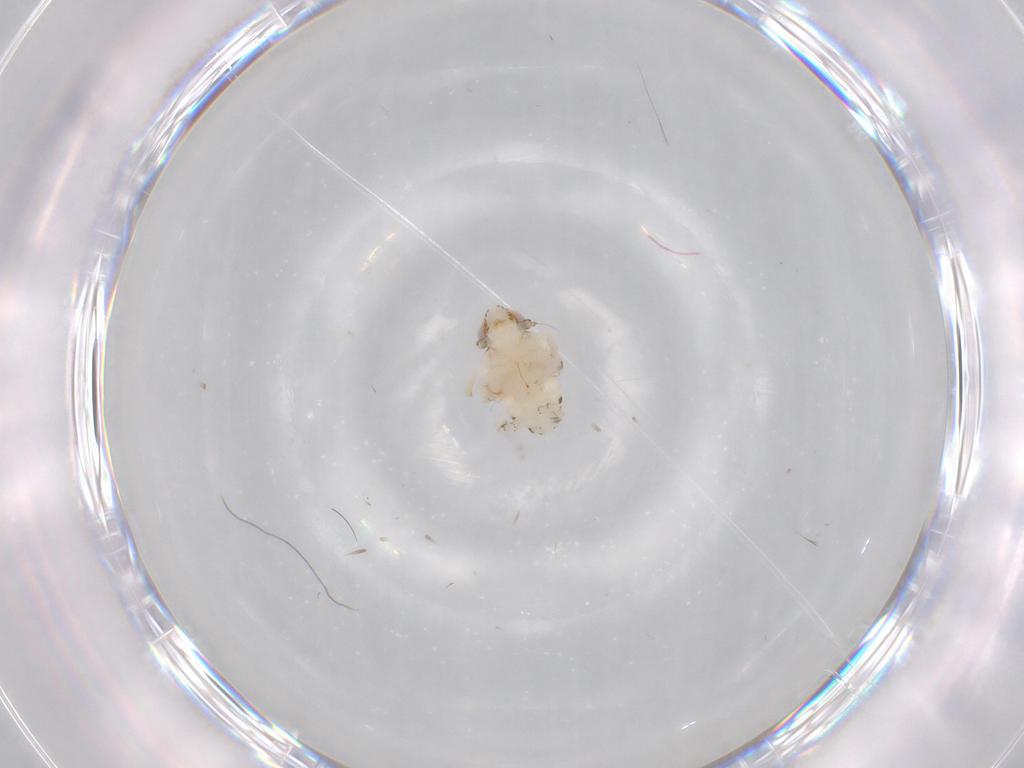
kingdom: Animalia
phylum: Arthropoda
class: Insecta
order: Hemiptera
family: Nogodinidae
